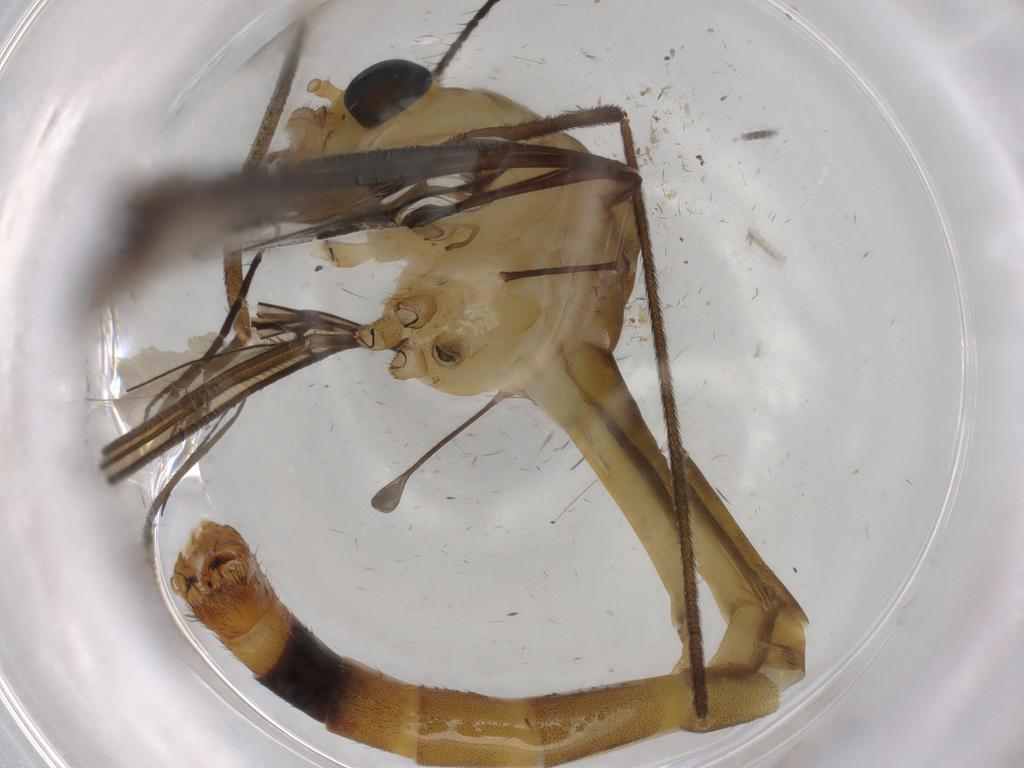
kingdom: Animalia
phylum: Arthropoda
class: Insecta
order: Diptera
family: Cecidomyiidae
